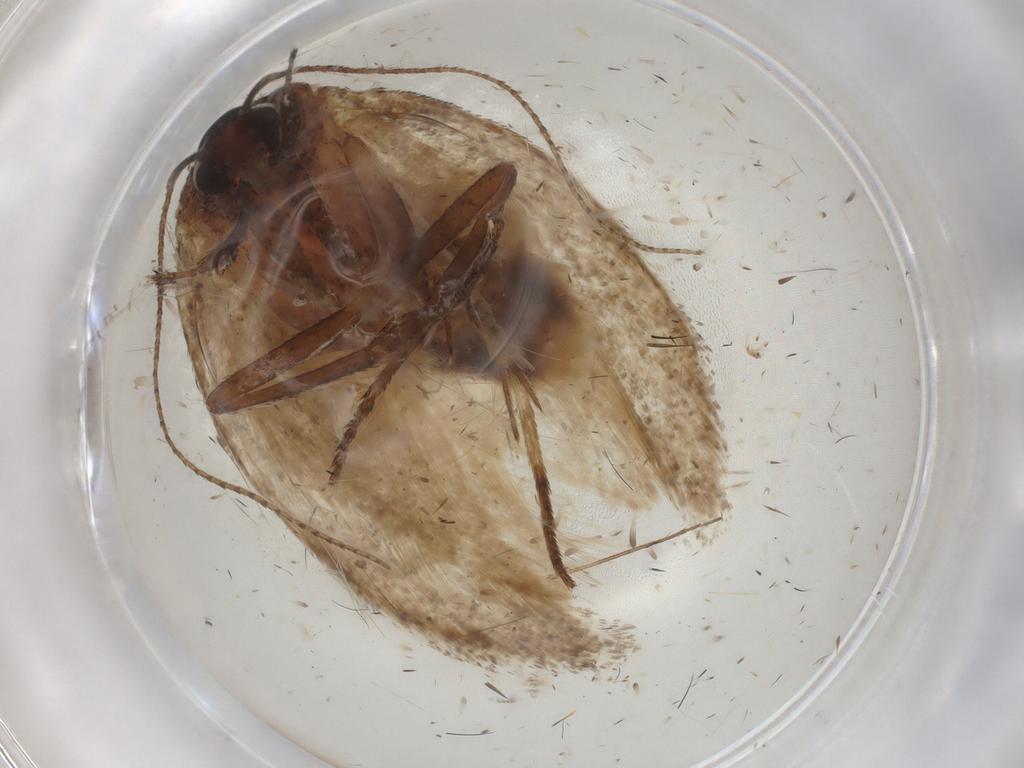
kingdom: Animalia
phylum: Arthropoda
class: Insecta
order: Lepidoptera
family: Cosmopterigidae
